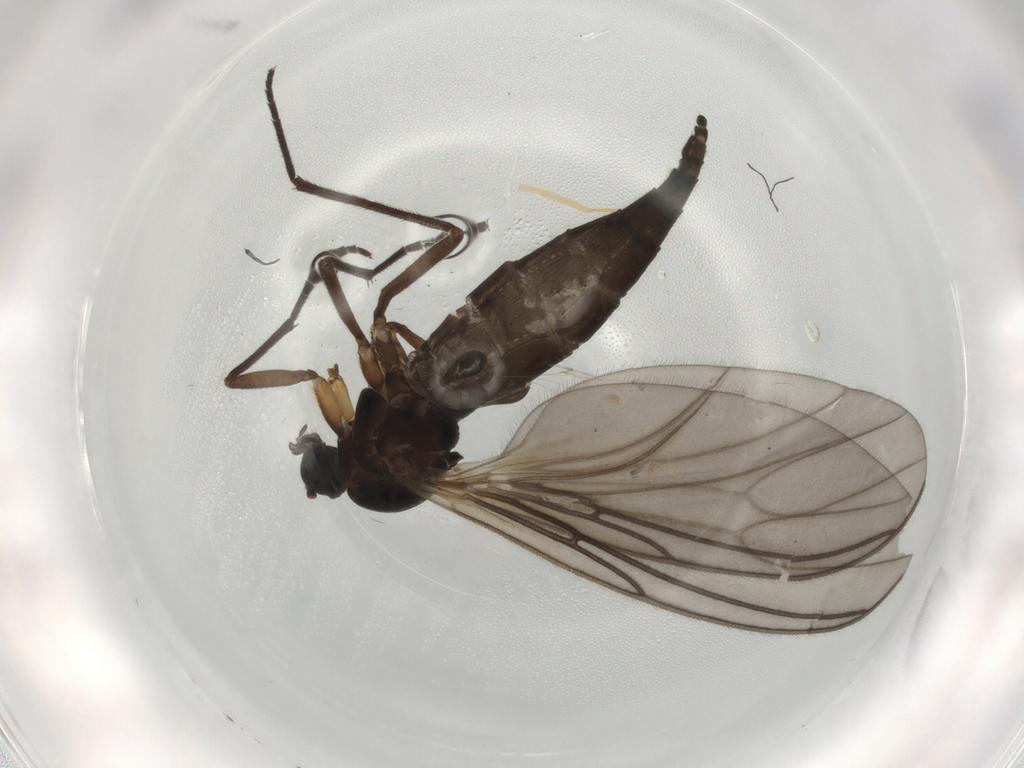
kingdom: Animalia
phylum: Arthropoda
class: Insecta
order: Diptera
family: Sciaridae
